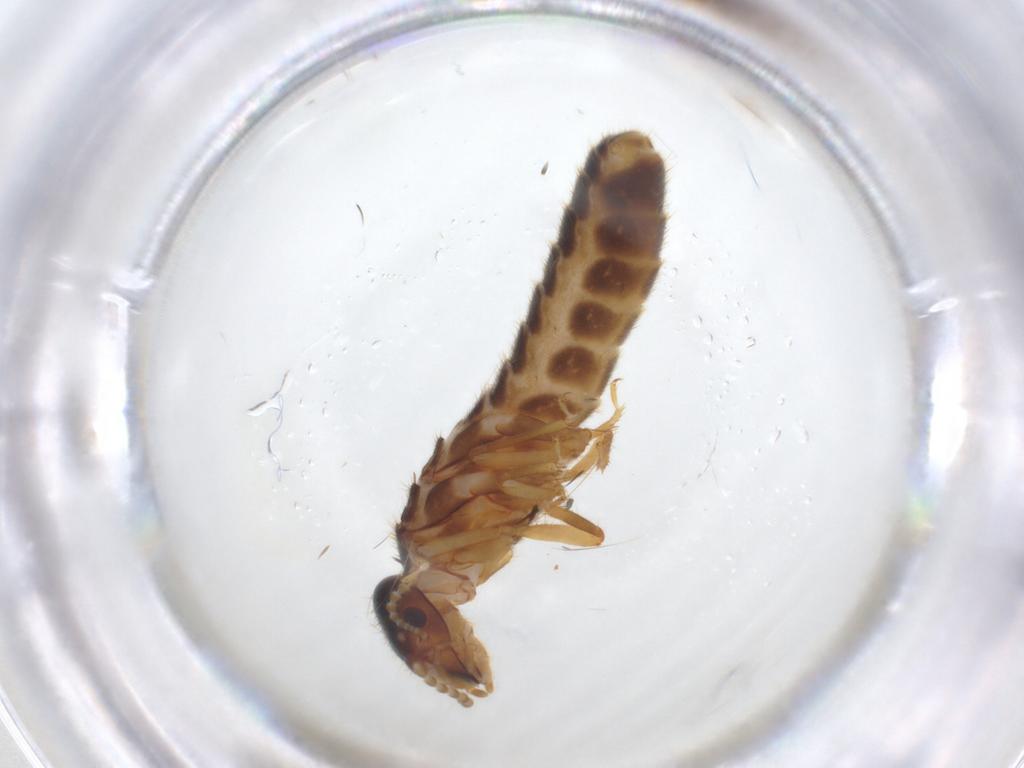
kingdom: Animalia
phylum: Arthropoda
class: Insecta
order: Blattodea
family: Termitidae
